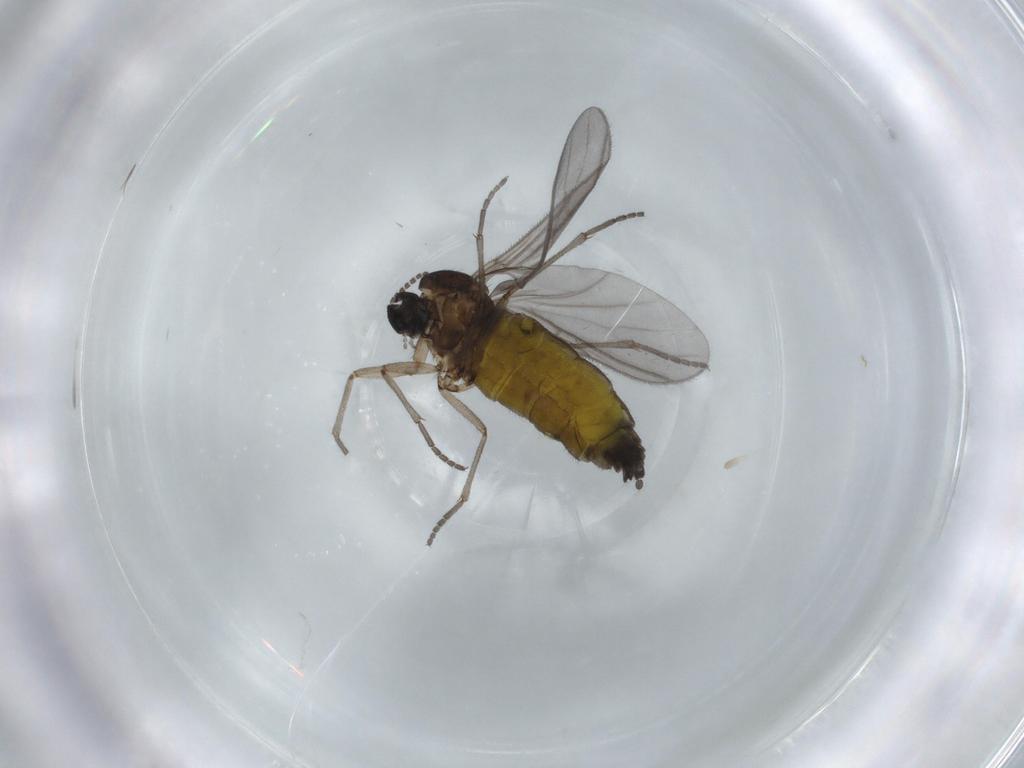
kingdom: Animalia
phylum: Arthropoda
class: Insecta
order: Diptera
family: Sciaridae
